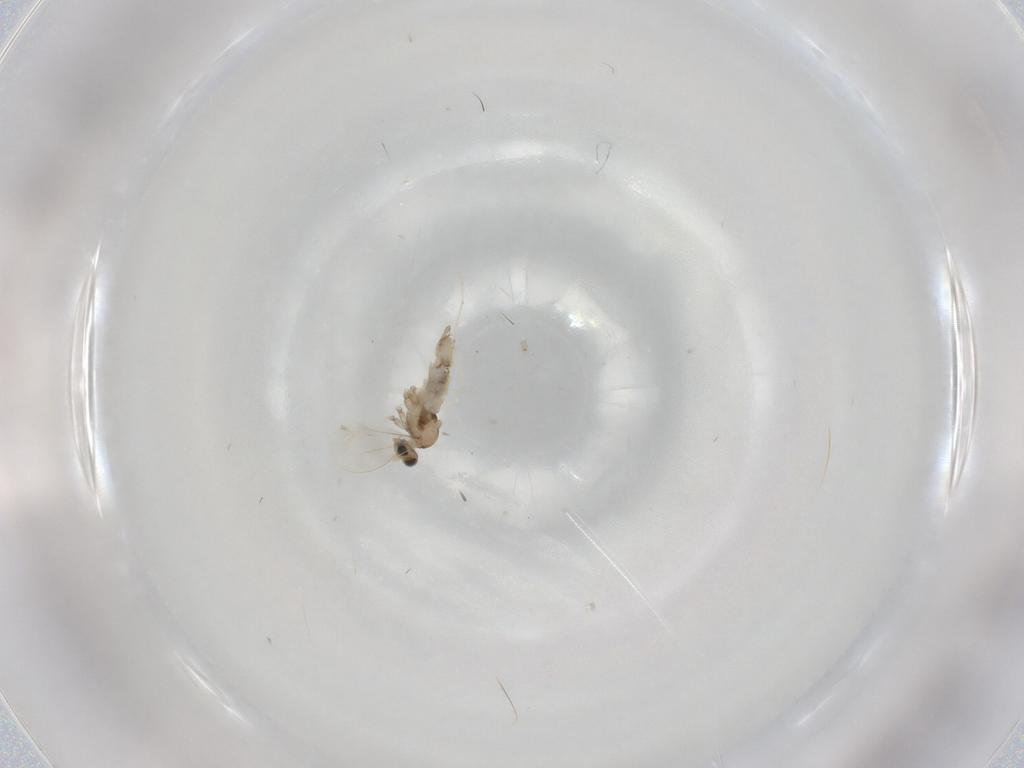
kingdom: Animalia
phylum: Arthropoda
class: Insecta
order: Diptera
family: Cecidomyiidae
